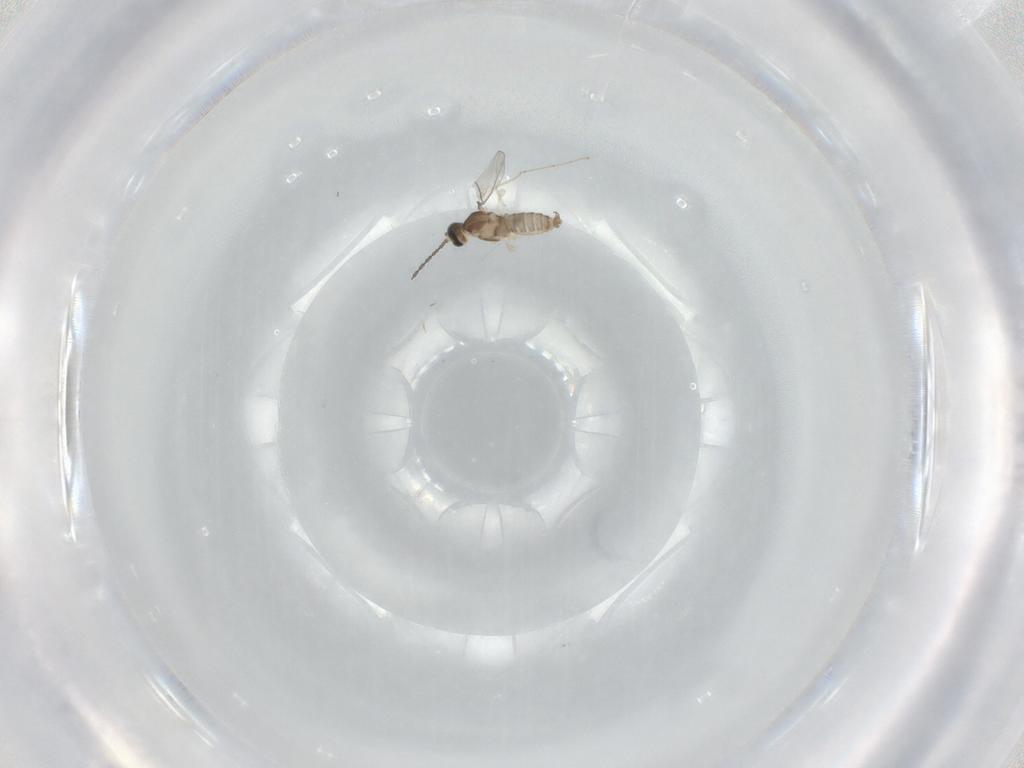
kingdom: Animalia
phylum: Arthropoda
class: Insecta
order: Diptera
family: Cecidomyiidae
